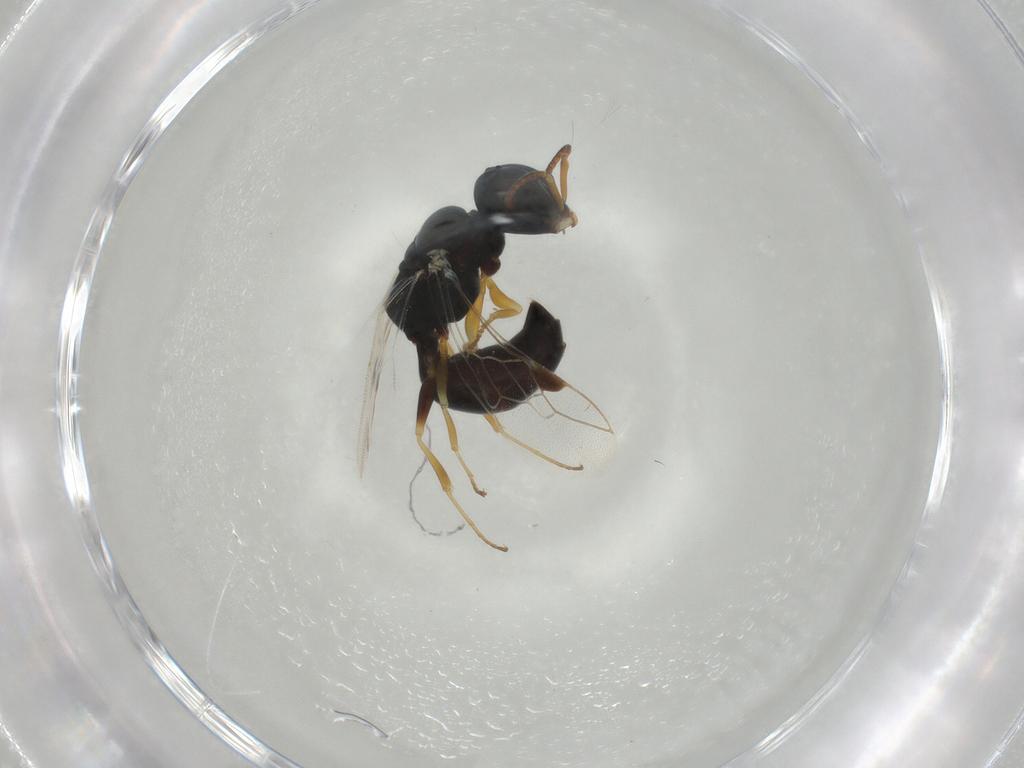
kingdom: Animalia
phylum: Arthropoda
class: Insecta
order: Hymenoptera
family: Pemphredonidae
